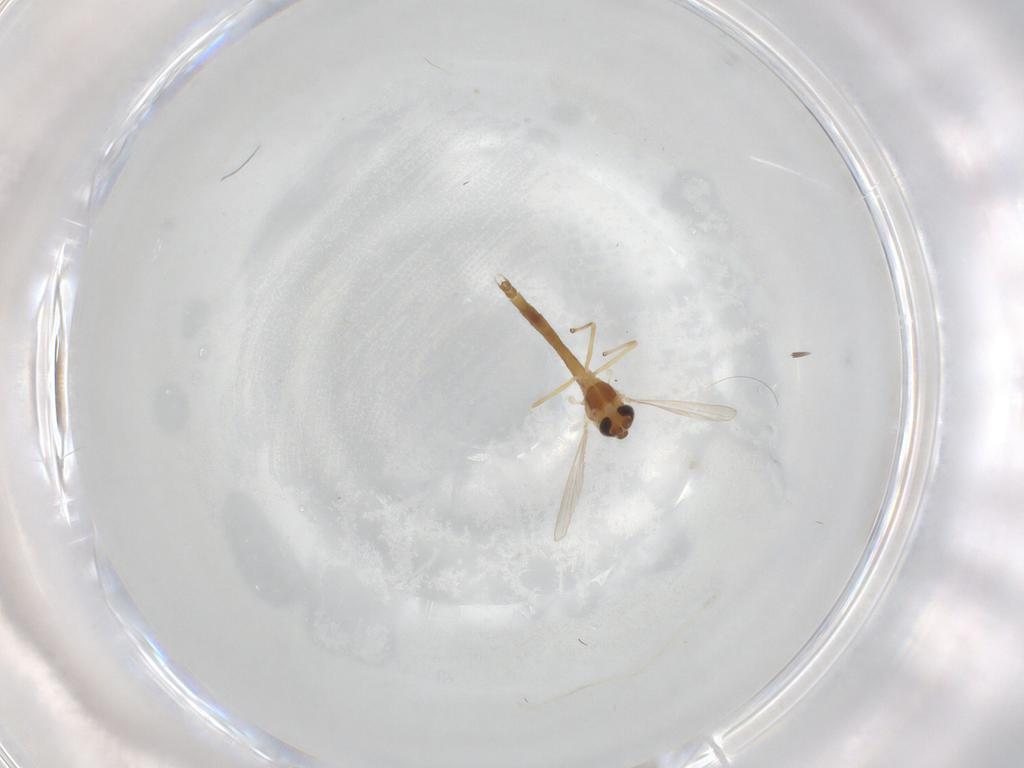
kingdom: Animalia
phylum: Arthropoda
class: Insecta
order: Diptera
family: Chironomidae
